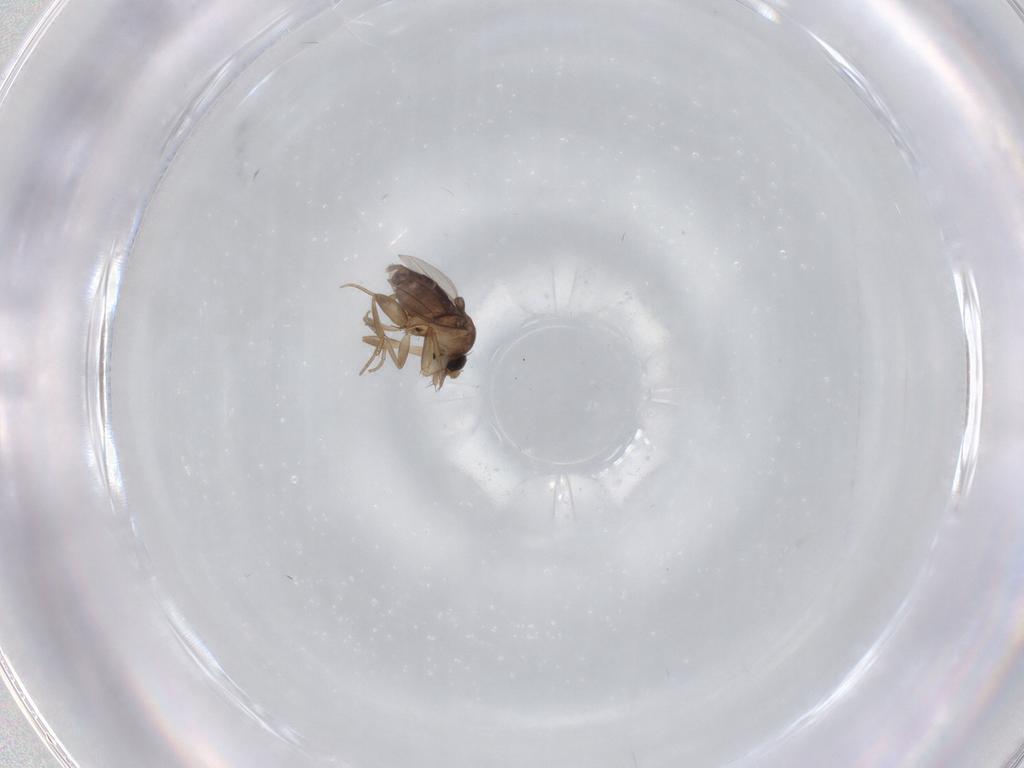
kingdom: Animalia
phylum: Arthropoda
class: Insecta
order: Diptera
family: Phoridae
